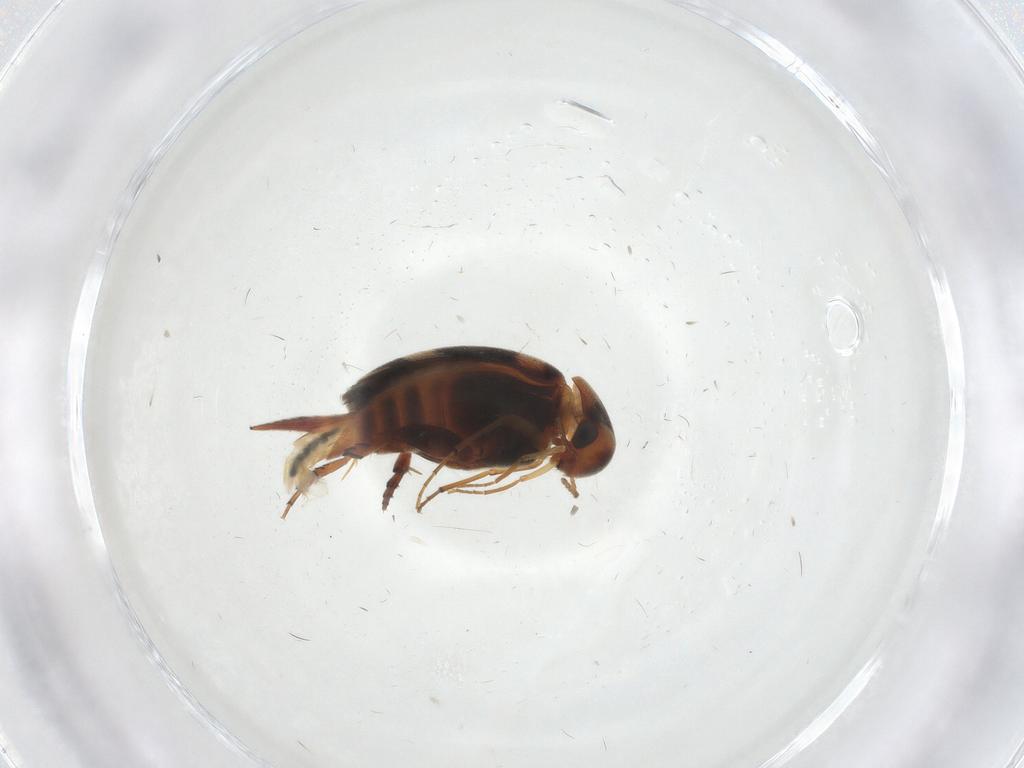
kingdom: Animalia
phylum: Arthropoda
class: Insecta
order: Coleoptera
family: Mordellidae
